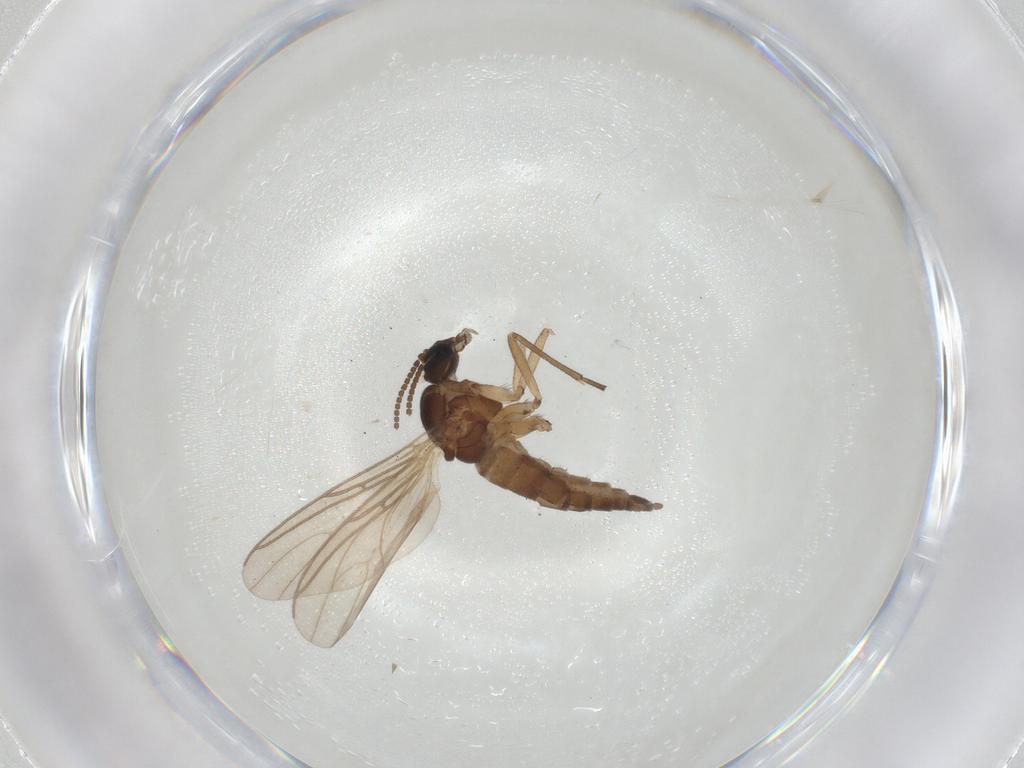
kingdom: Animalia
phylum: Arthropoda
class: Insecta
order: Diptera
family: Sciaridae
